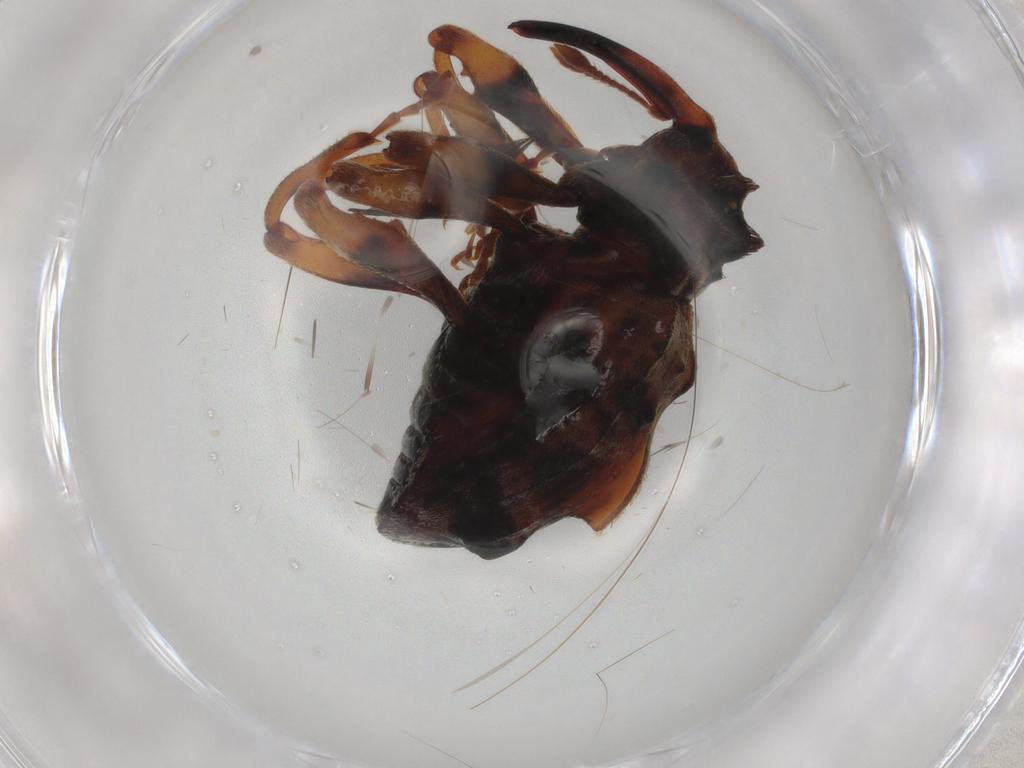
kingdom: Animalia
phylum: Arthropoda
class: Insecta
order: Coleoptera
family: Curculionidae
